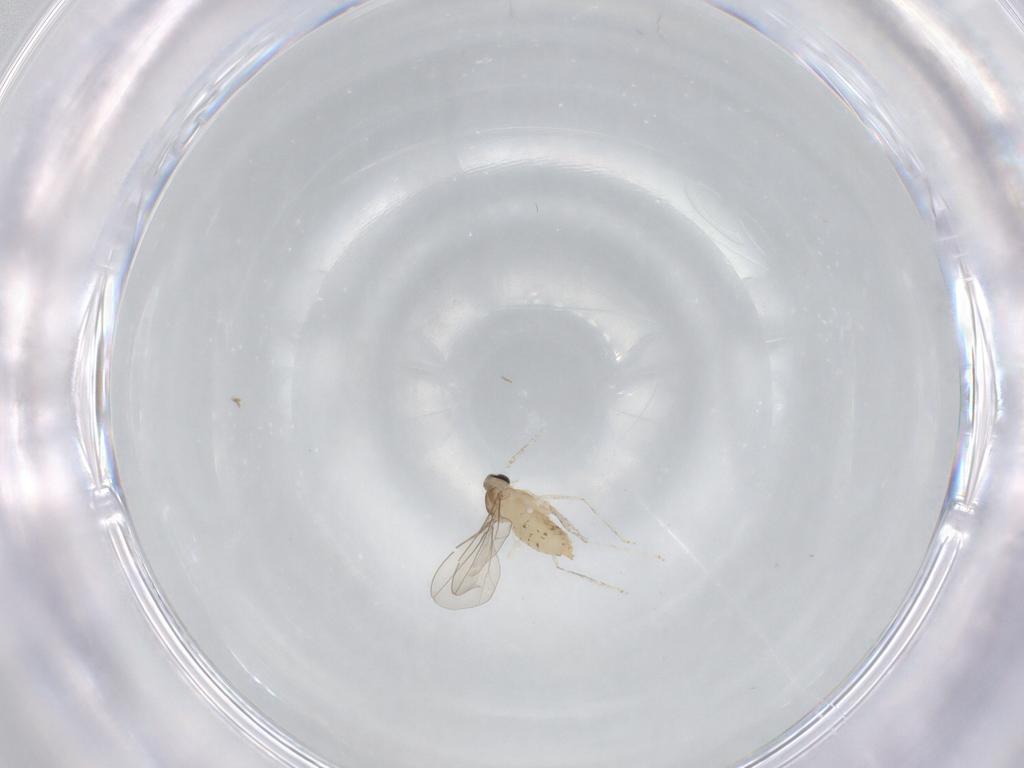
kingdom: Animalia
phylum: Arthropoda
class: Insecta
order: Diptera
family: Cecidomyiidae
